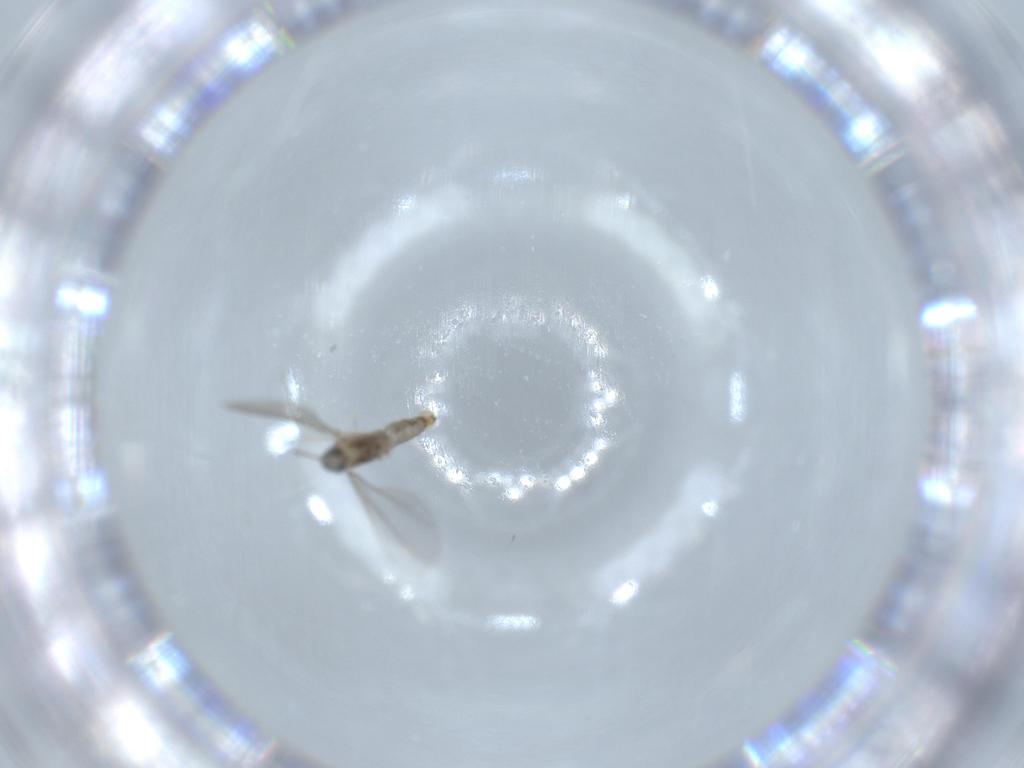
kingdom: Animalia
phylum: Arthropoda
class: Insecta
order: Diptera
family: Cecidomyiidae
